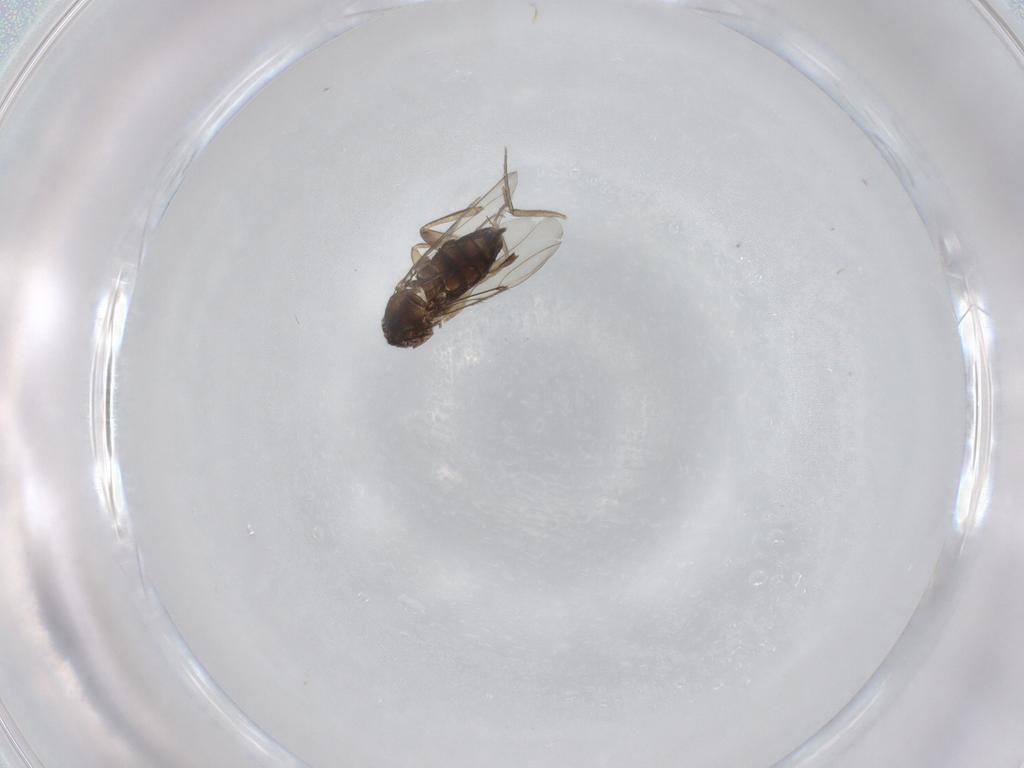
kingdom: Animalia
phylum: Arthropoda
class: Insecta
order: Diptera
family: Phoridae
